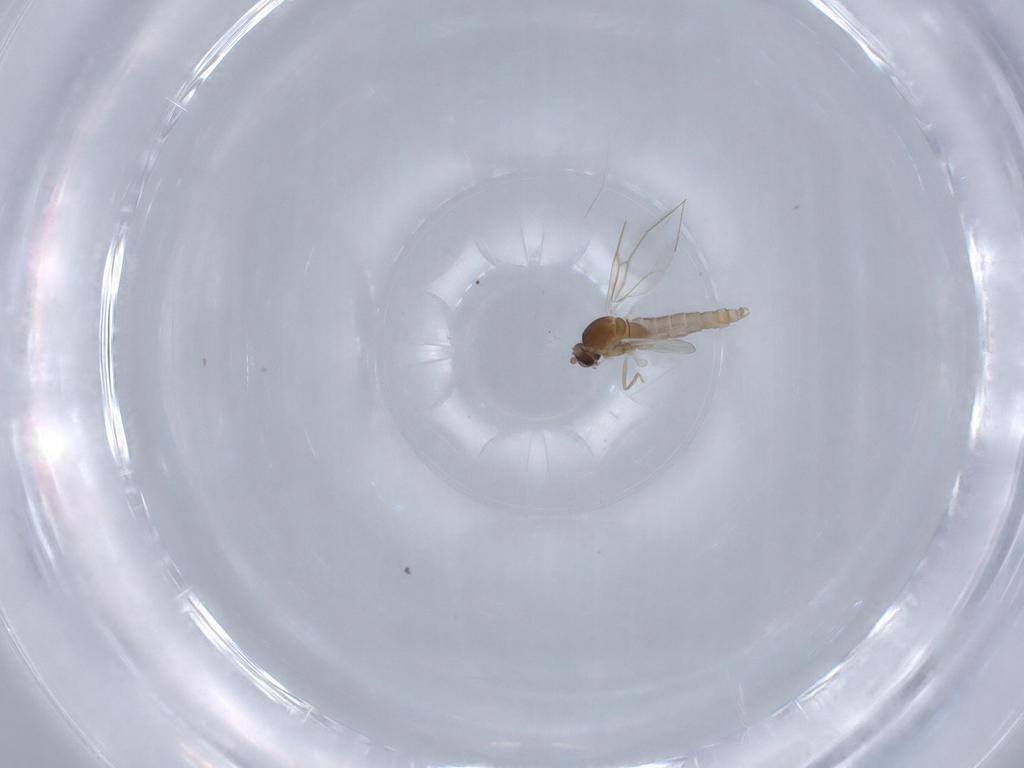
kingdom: Animalia
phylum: Arthropoda
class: Insecta
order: Diptera
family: Cecidomyiidae
